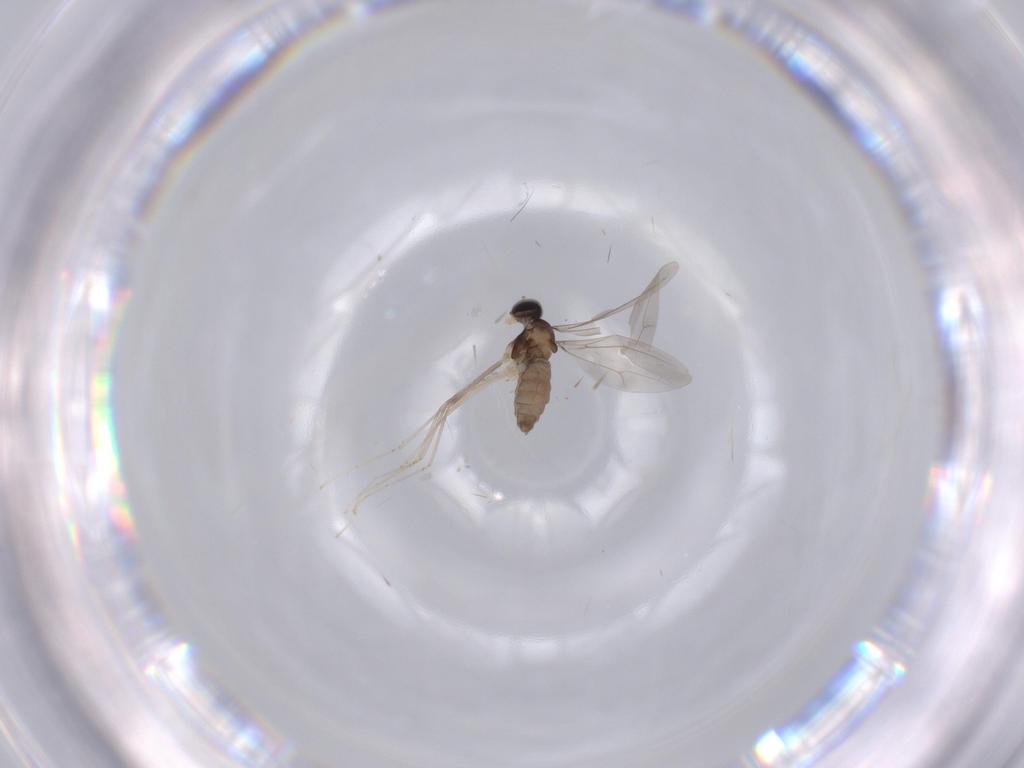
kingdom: Animalia
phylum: Arthropoda
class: Insecta
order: Diptera
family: Cecidomyiidae
